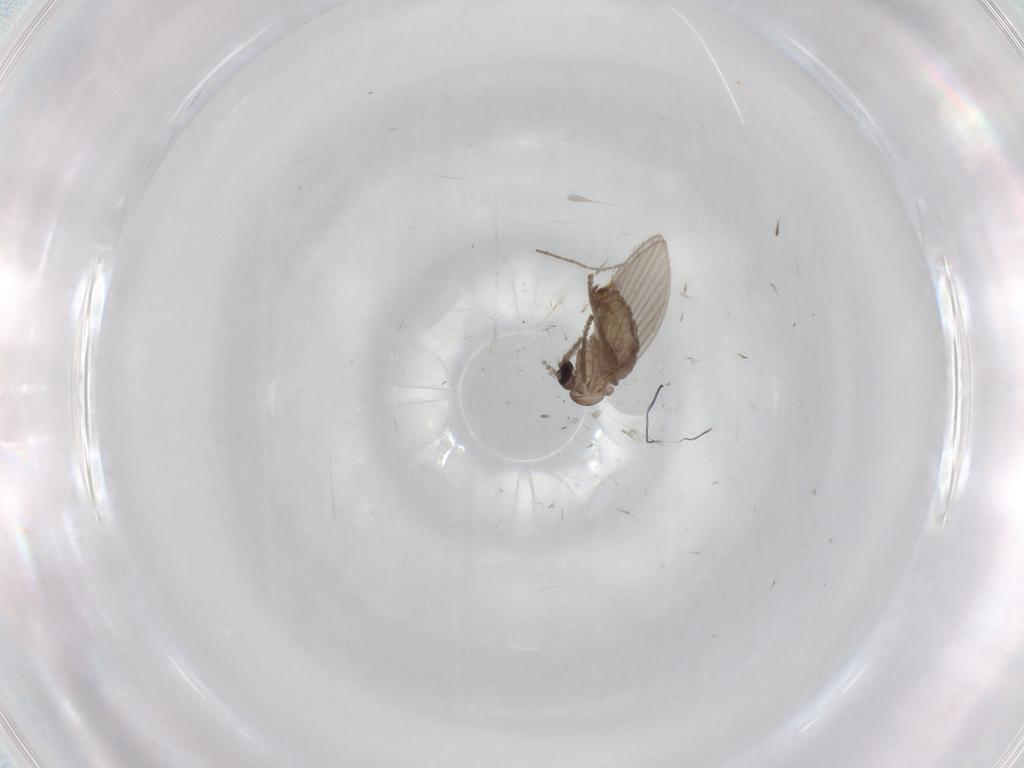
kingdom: Animalia
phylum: Arthropoda
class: Insecta
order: Diptera
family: Psychodidae
